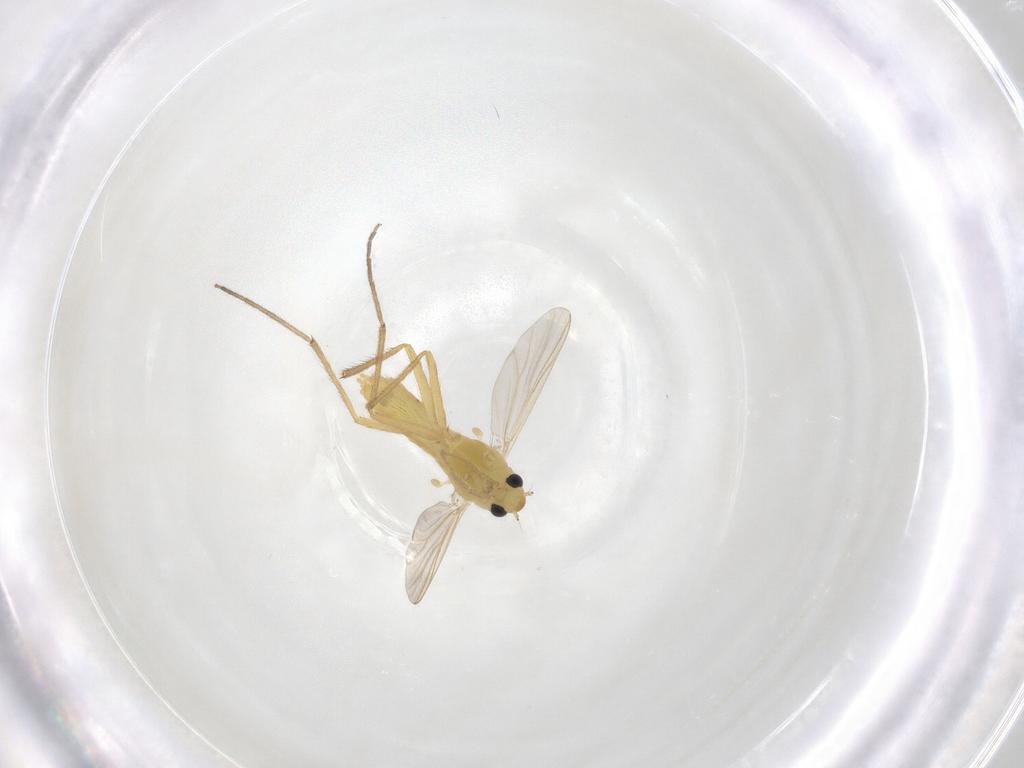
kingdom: Animalia
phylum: Arthropoda
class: Insecta
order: Diptera
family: Chironomidae
